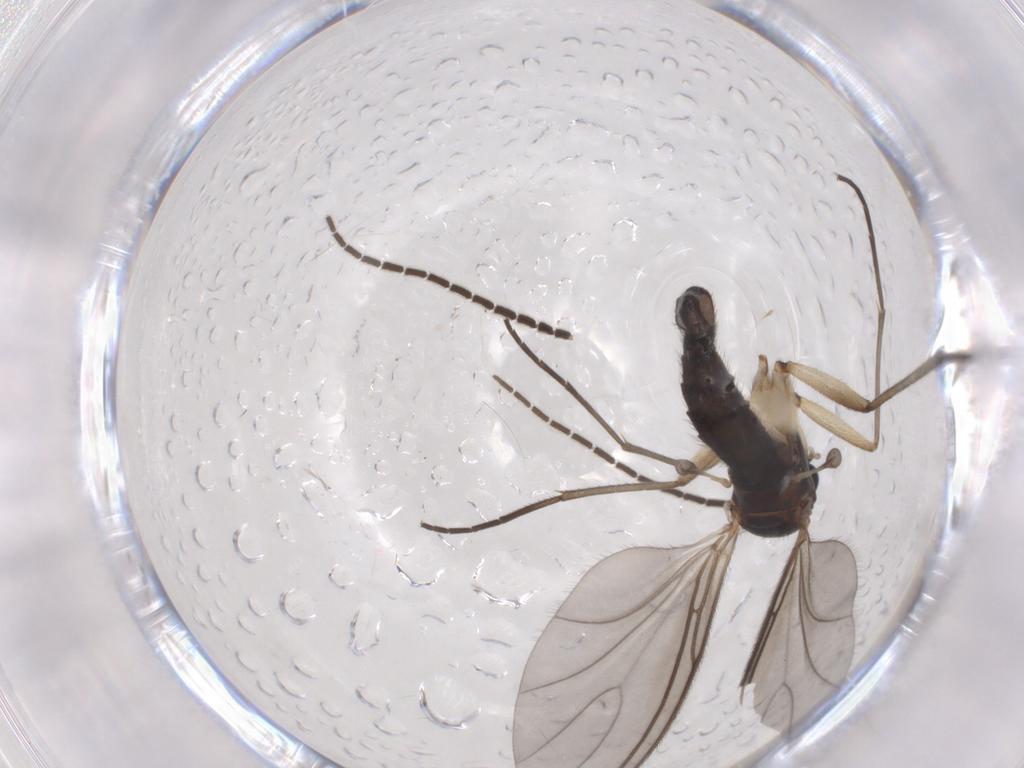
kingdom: Animalia
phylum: Arthropoda
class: Insecta
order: Diptera
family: Sciaridae
